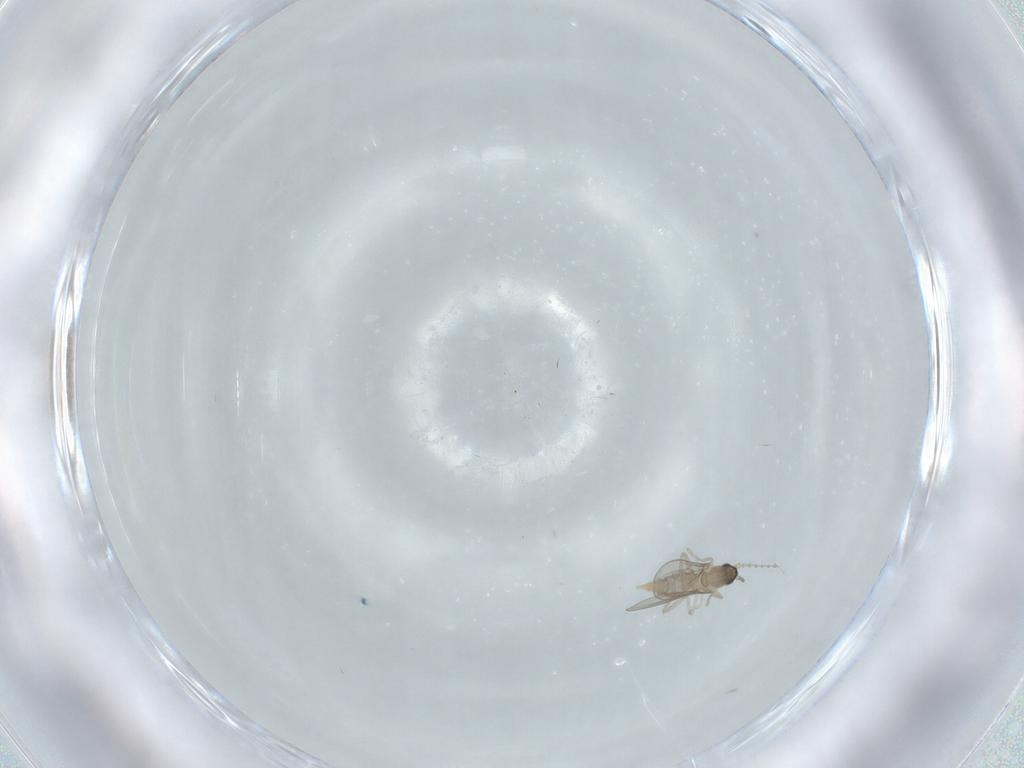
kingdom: Animalia
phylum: Arthropoda
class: Insecta
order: Diptera
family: Cecidomyiidae
